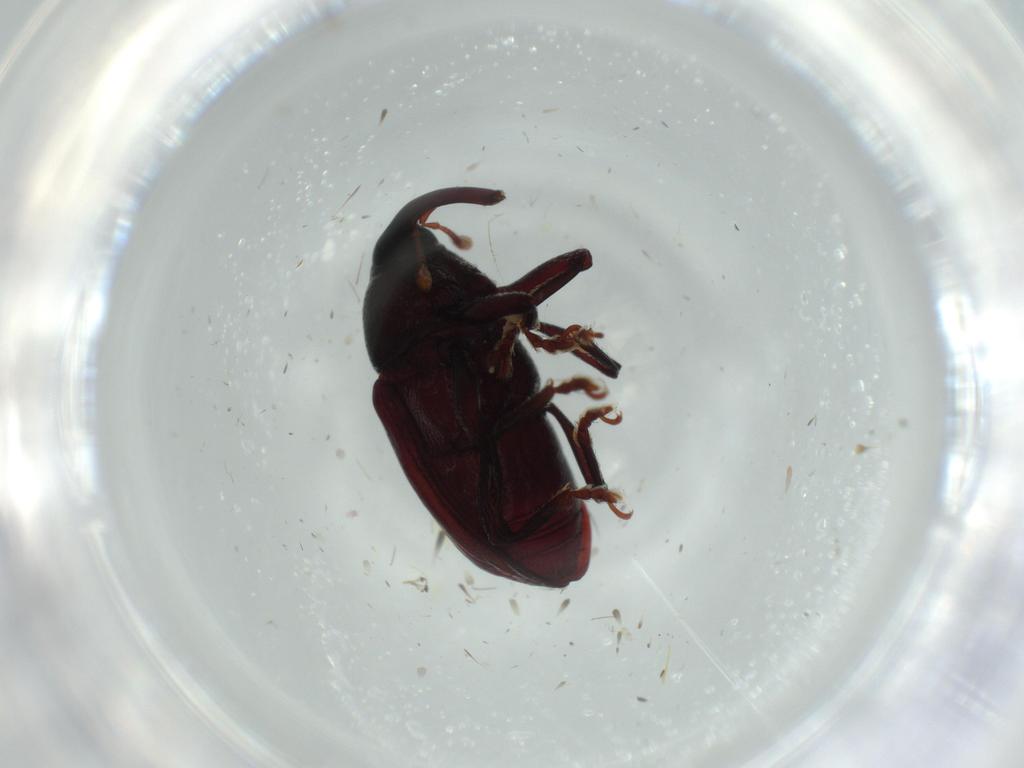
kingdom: Animalia
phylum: Arthropoda
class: Insecta
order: Coleoptera
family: Curculionidae
